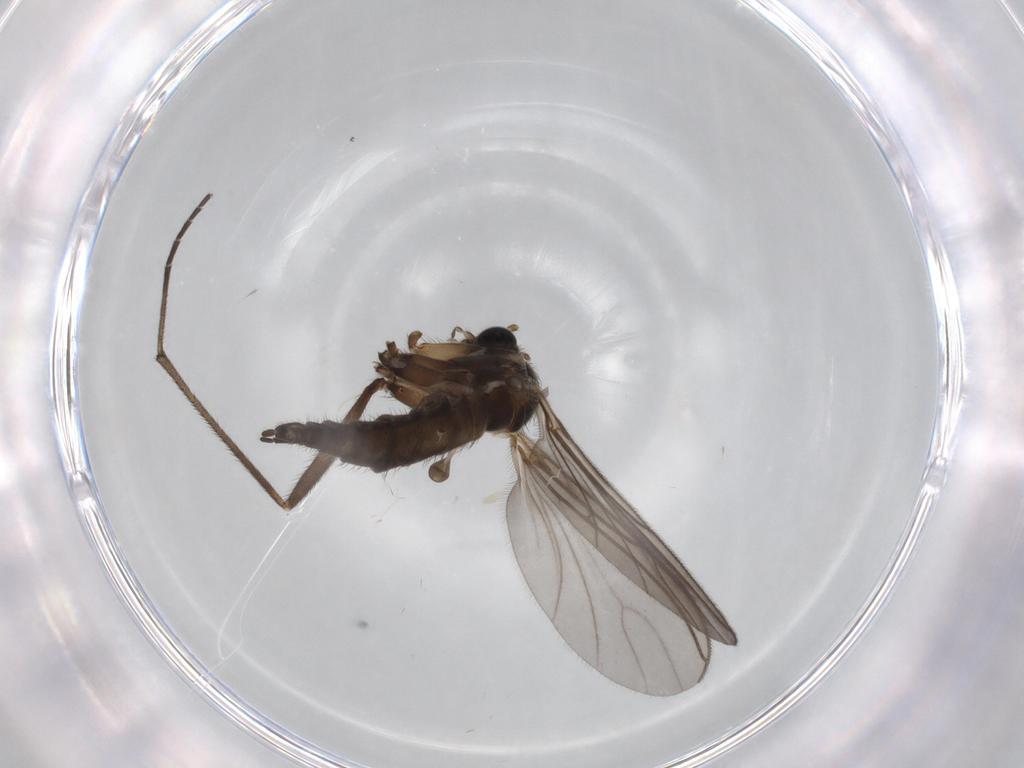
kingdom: Animalia
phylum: Arthropoda
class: Insecta
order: Diptera
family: Sciaridae
